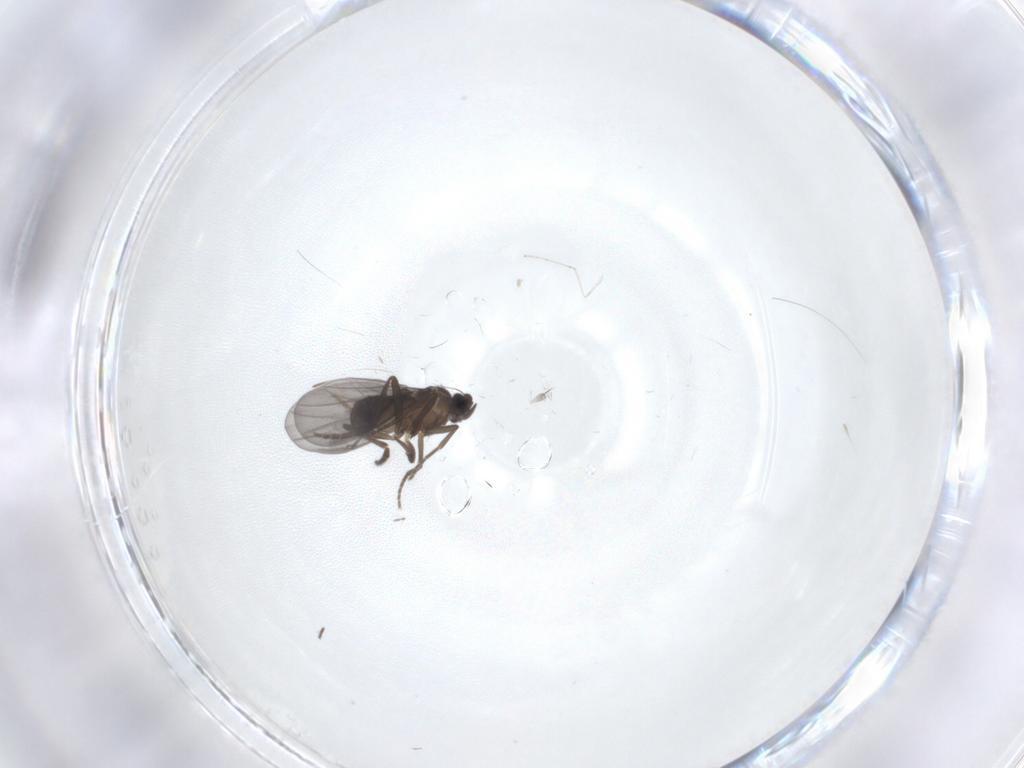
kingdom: Animalia
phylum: Arthropoda
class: Insecta
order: Diptera
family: Phoridae
